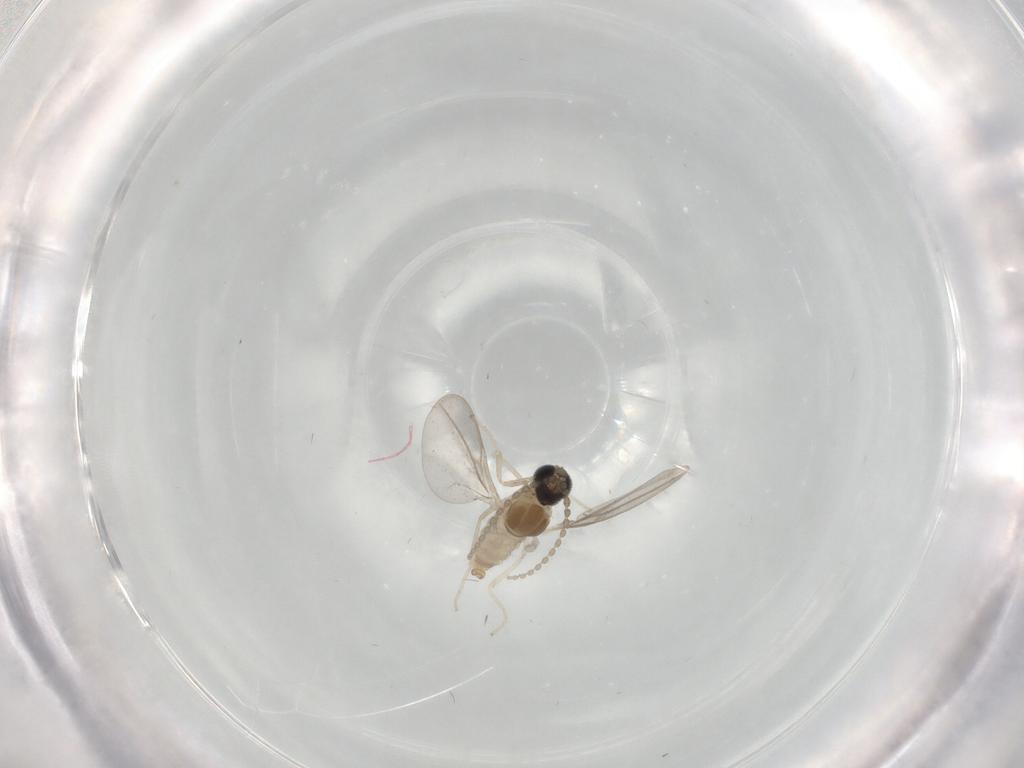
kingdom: Animalia
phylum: Arthropoda
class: Insecta
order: Diptera
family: Cecidomyiidae
